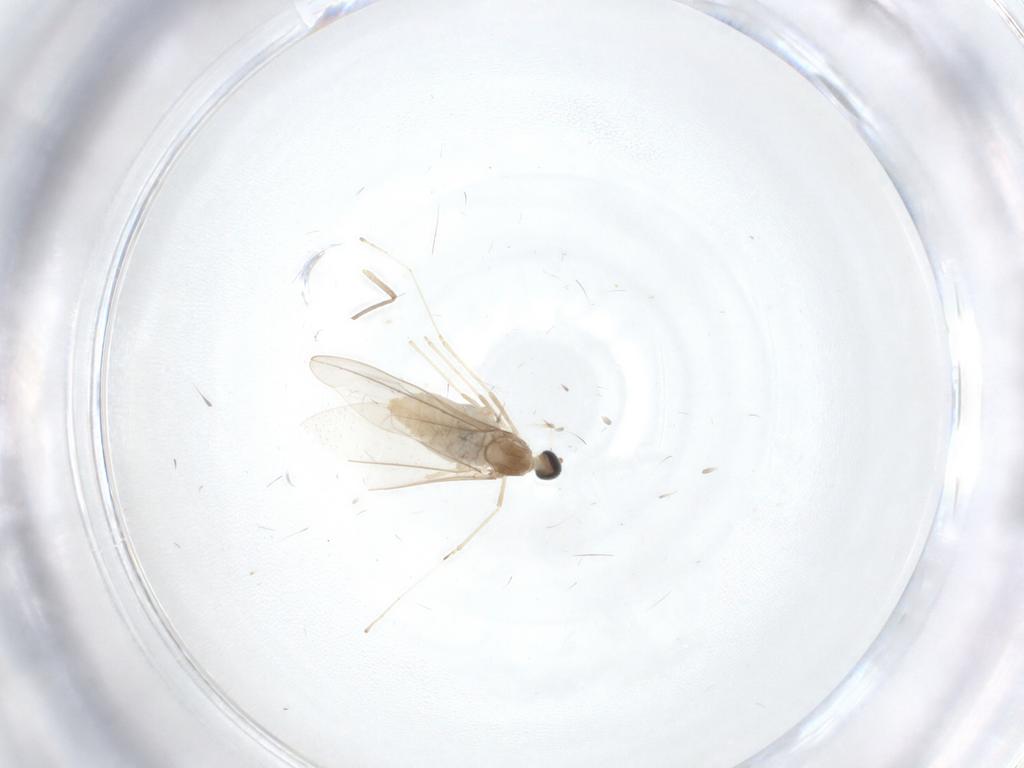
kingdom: Animalia
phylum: Arthropoda
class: Insecta
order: Diptera
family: Cecidomyiidae
